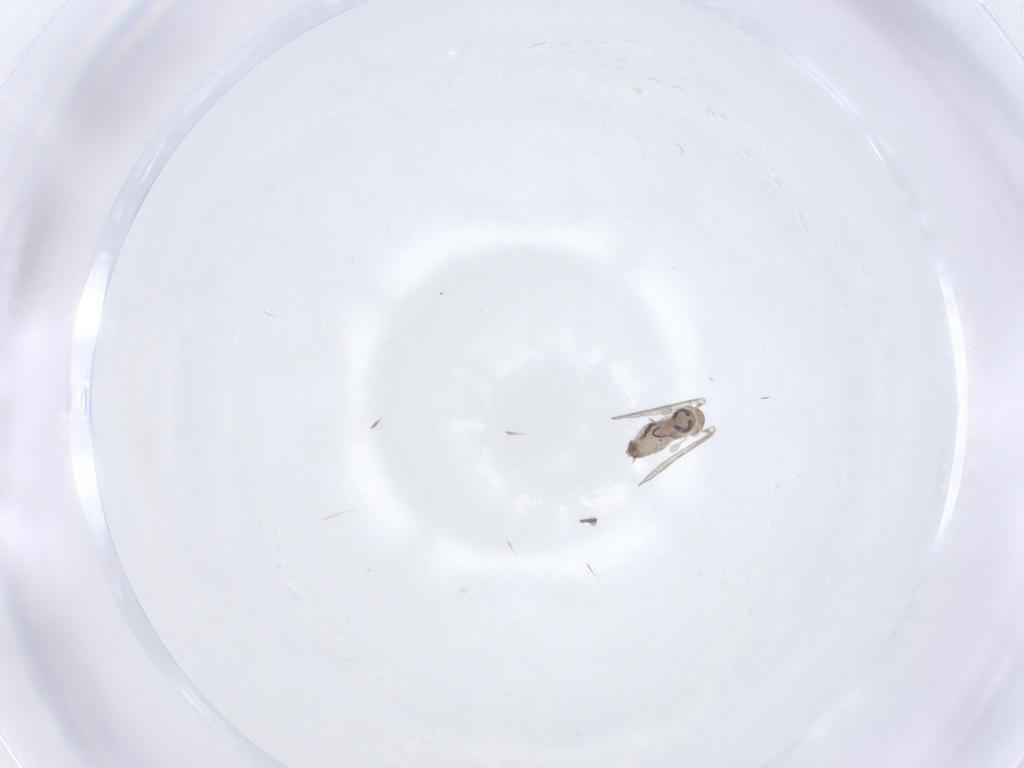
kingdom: Animalia
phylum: Arthropoda
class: Insecta
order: Diptera
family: Psychodidae
